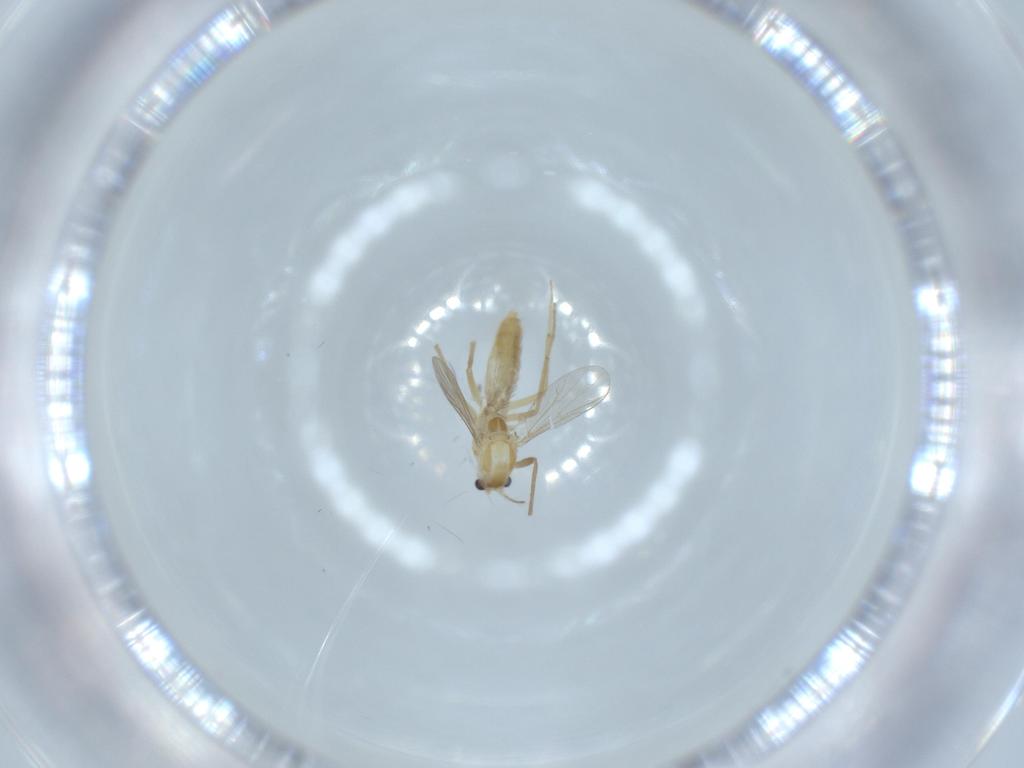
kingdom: Animalia
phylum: Arthropoda
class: Insecta
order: Diptera
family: Chironomidae
